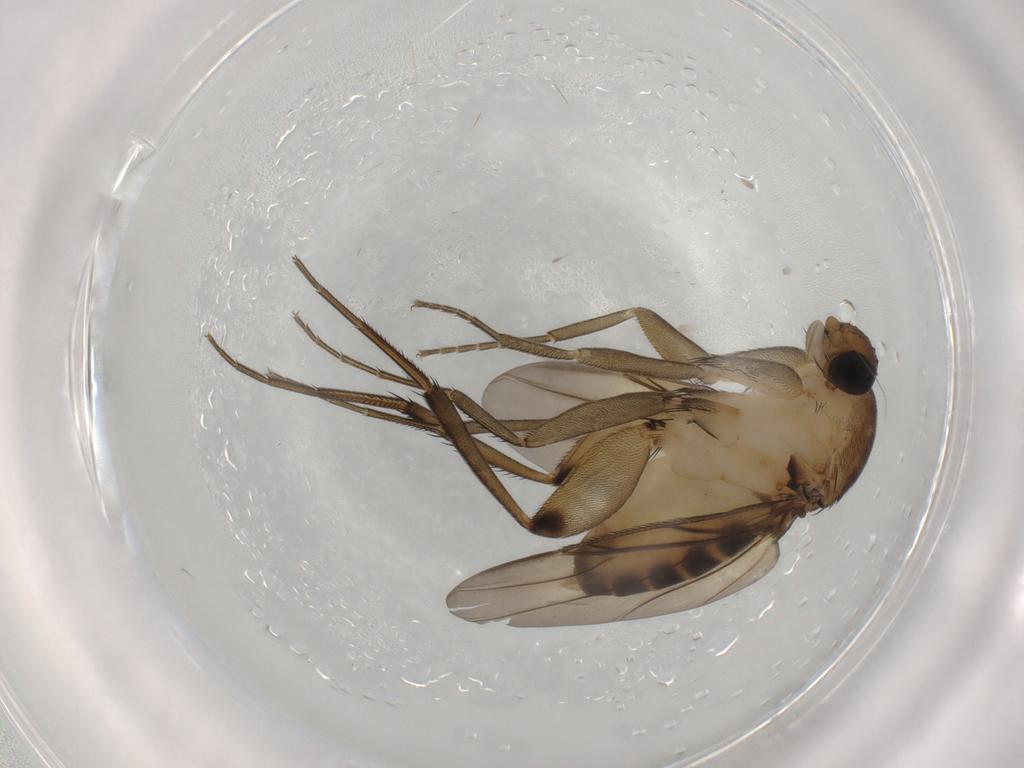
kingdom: Animalia
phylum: Arthropoda
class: Insecta
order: Diptera
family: Phoridae
